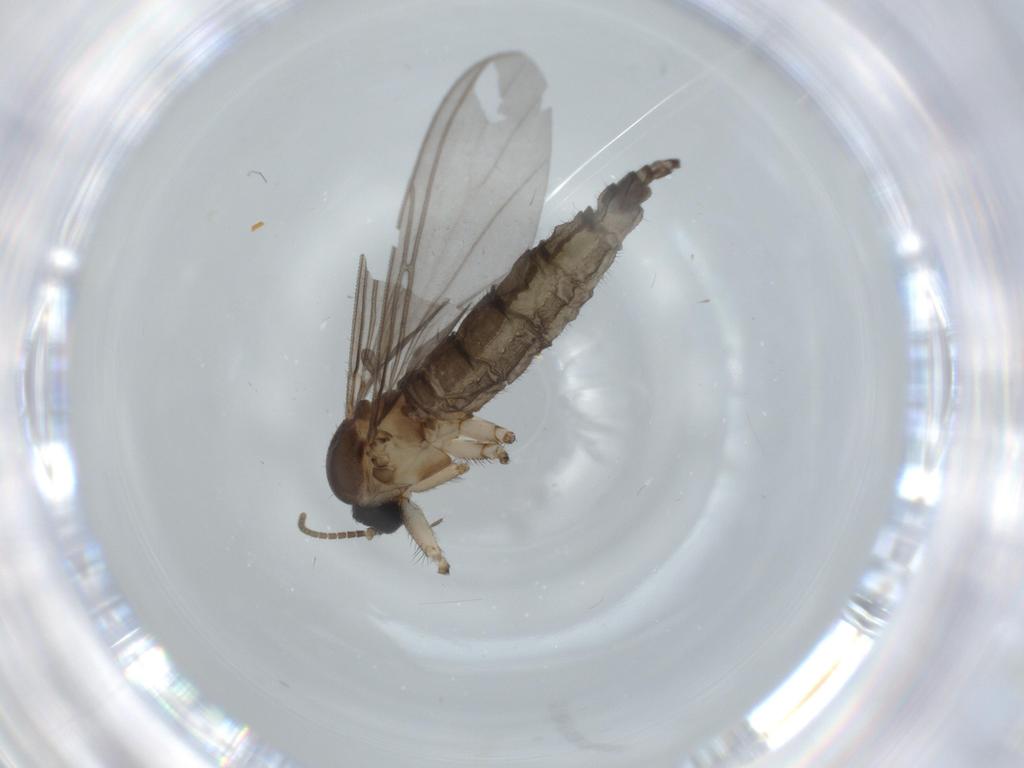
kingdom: Animalia
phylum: Arthropoda
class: Insecta
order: Diptera
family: Sciaridae
